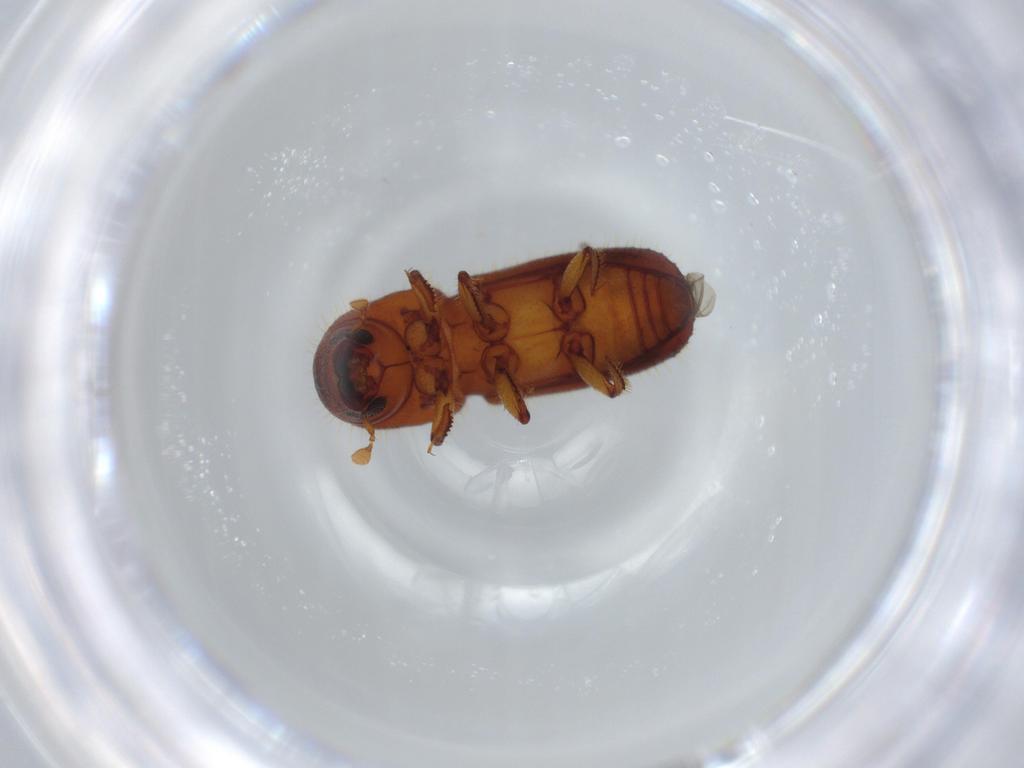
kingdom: Animalia
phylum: Arthropoda
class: Insecta
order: Coleoptera
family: Curculionidae
